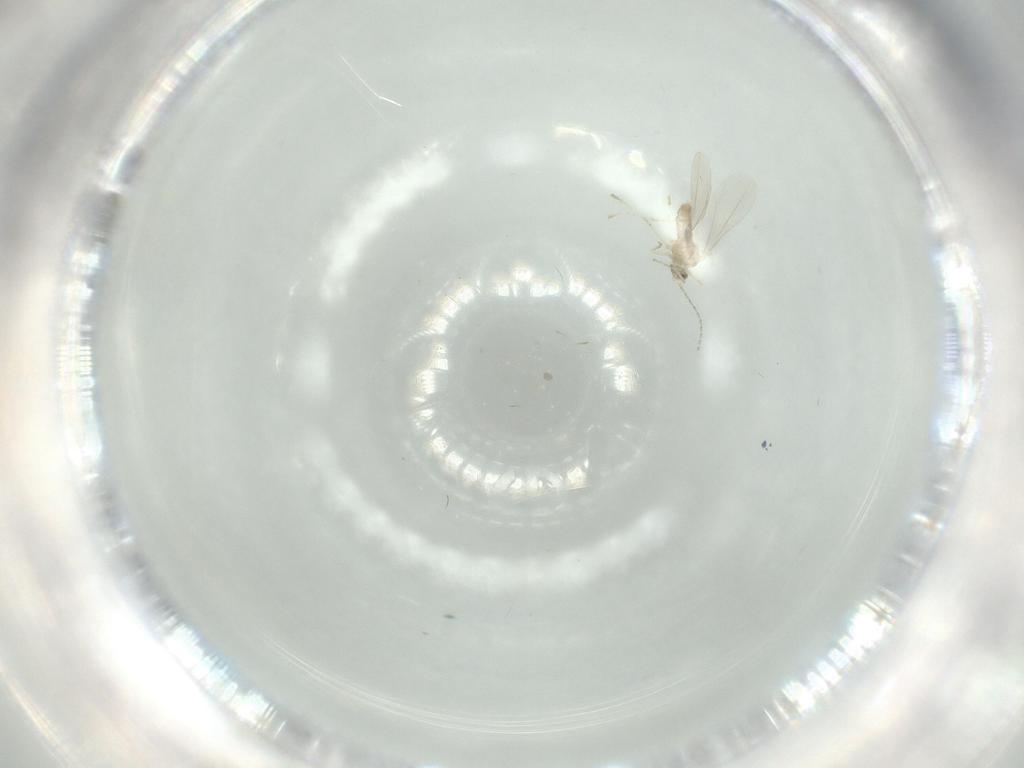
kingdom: Animalia
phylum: Arthropoda
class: Insecta
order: Diptera
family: Cecidomyiidae
